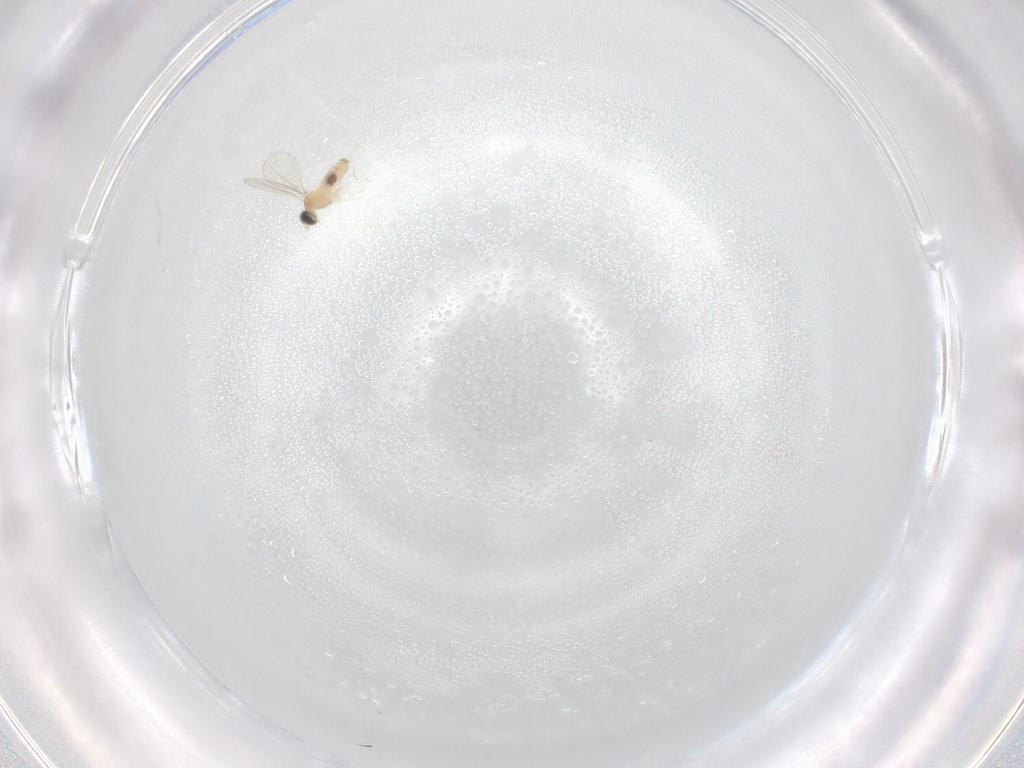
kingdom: Animalia
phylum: Arthropoda
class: Insecta
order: Diptera
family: Cecidomyiidae
